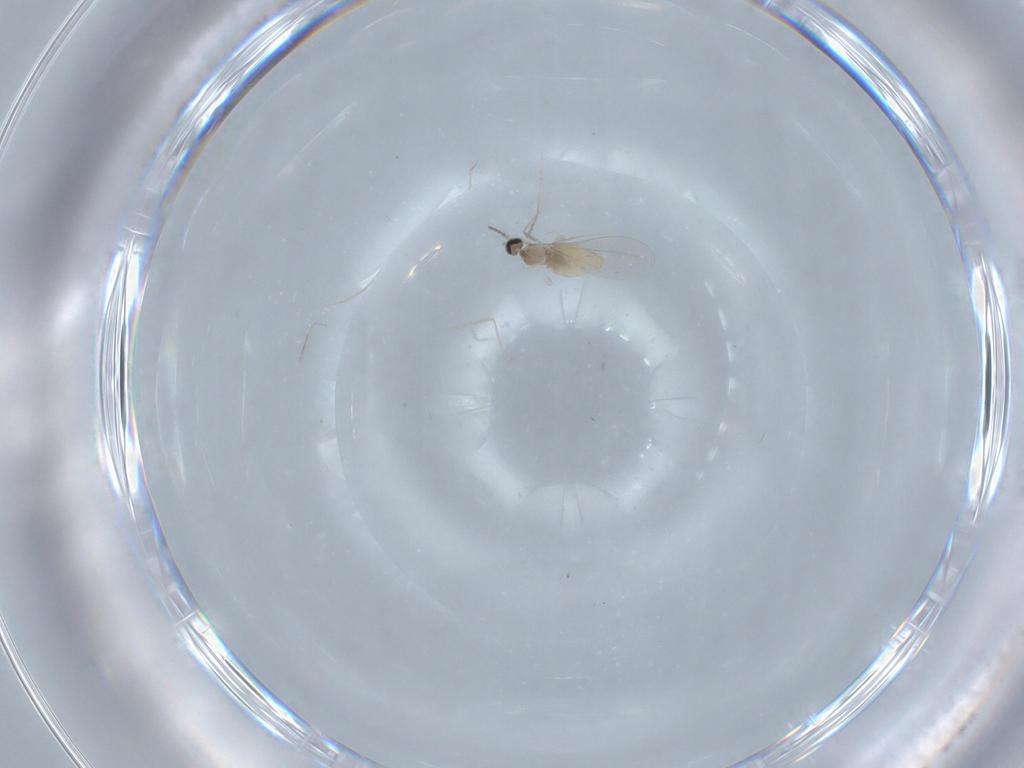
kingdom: Animalia
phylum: Arthropoda
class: Insecta
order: Diptera
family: Cecidomyiidae
